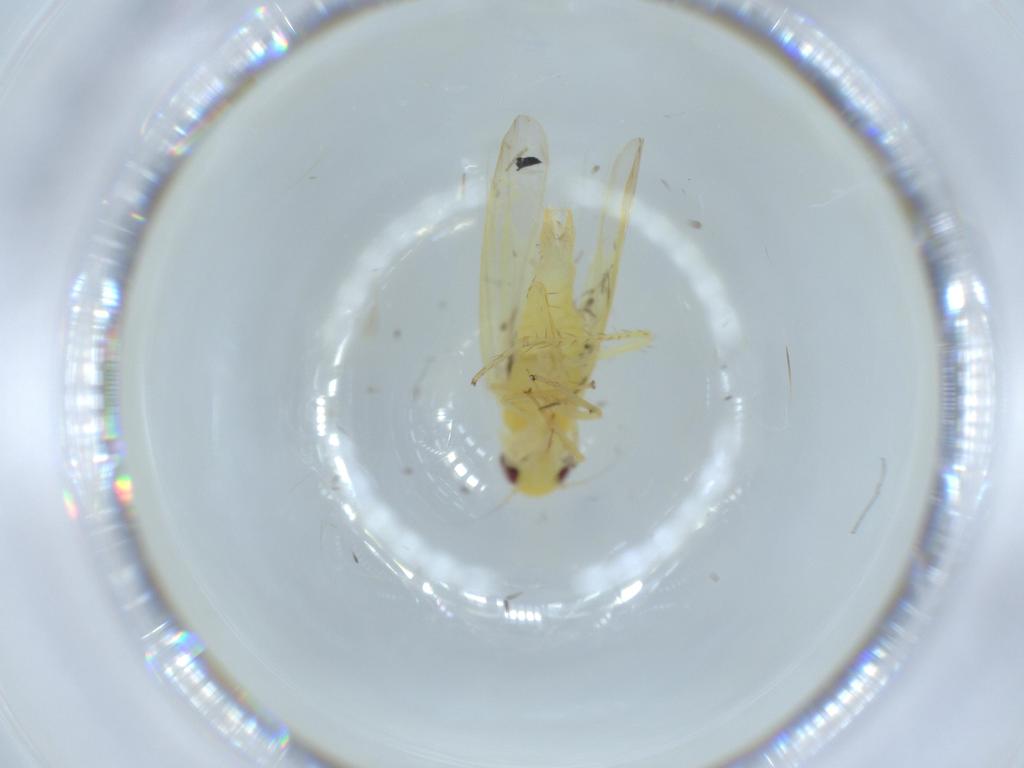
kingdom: Animalia
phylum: Arthropoda
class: Insecta
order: Hemiptera
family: Cicadellidae
